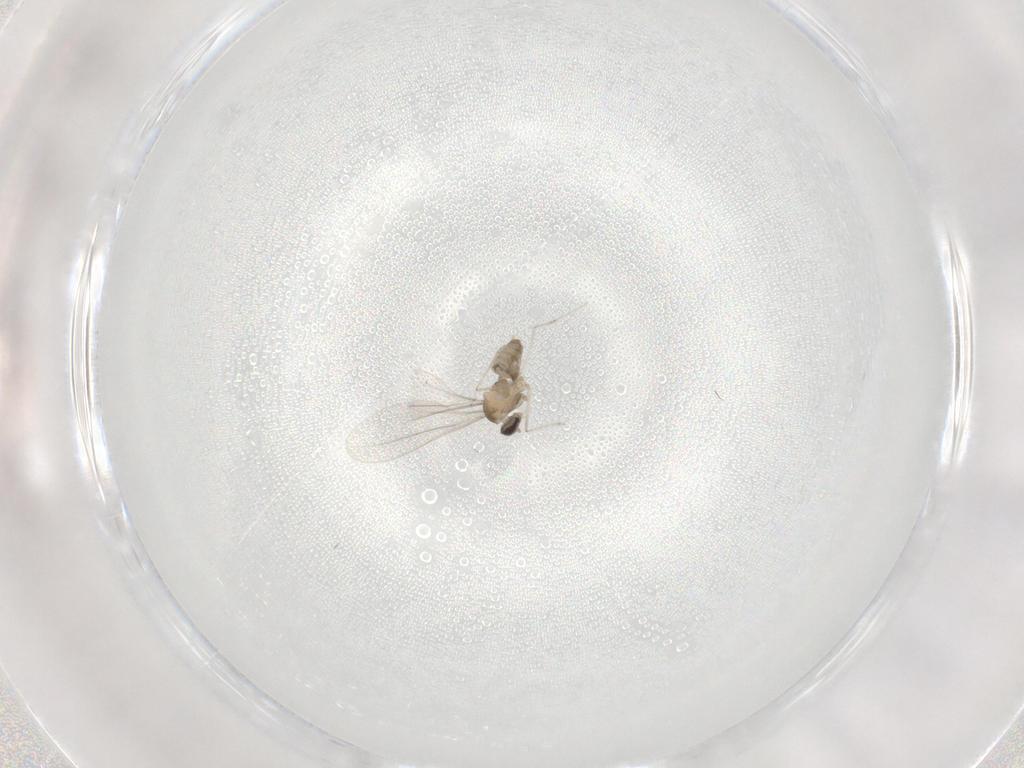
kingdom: Animalia
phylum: Arthropoda
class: Insecta
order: Diptera
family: Cecidomyiidae
